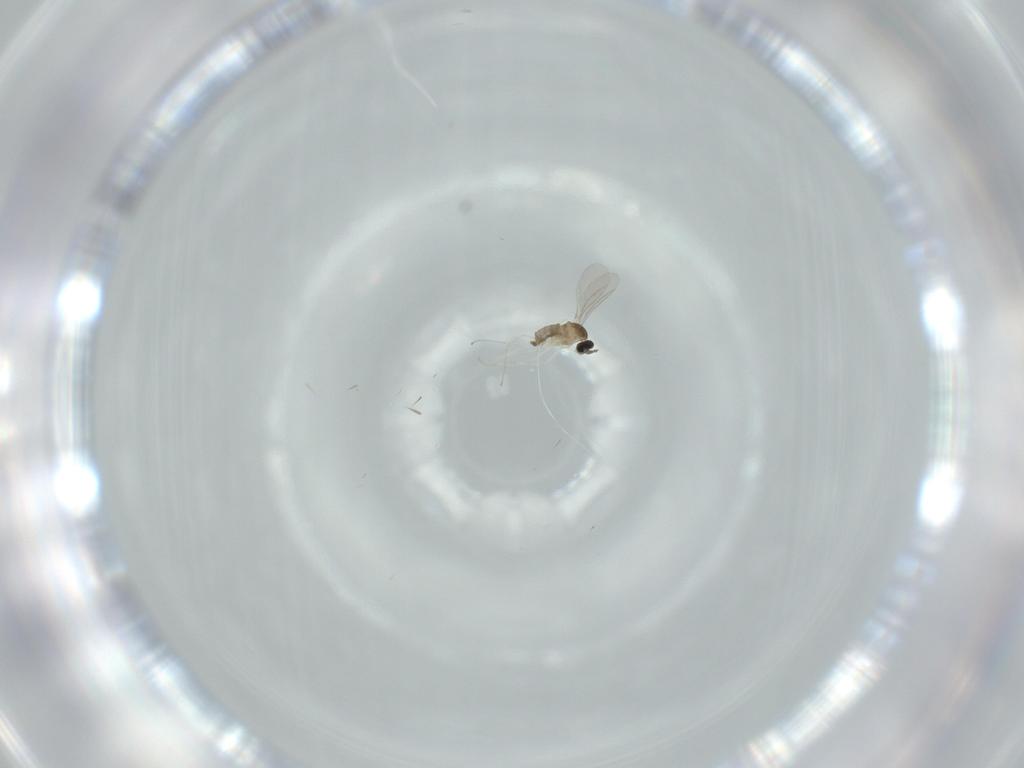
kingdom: Animalia
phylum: Arthropoda
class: Insecta
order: Diptera
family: Cecidomyiidae
